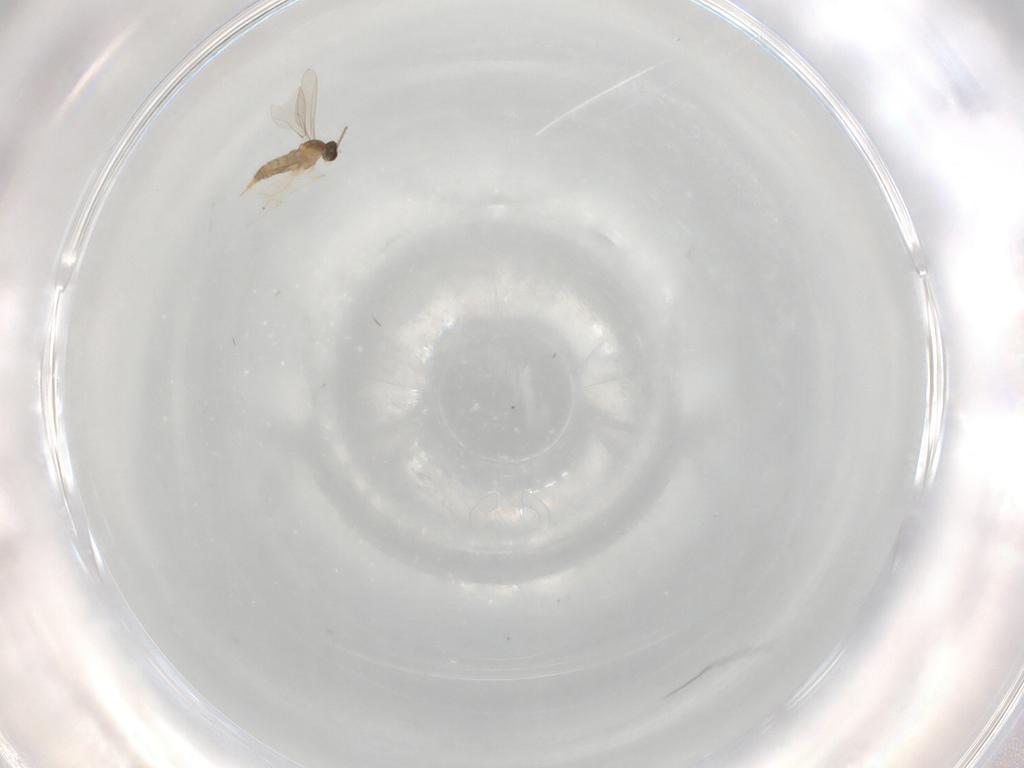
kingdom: Animalia
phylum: Arthropoda
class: Insecta
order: Diptera
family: Cecidomyiidae
